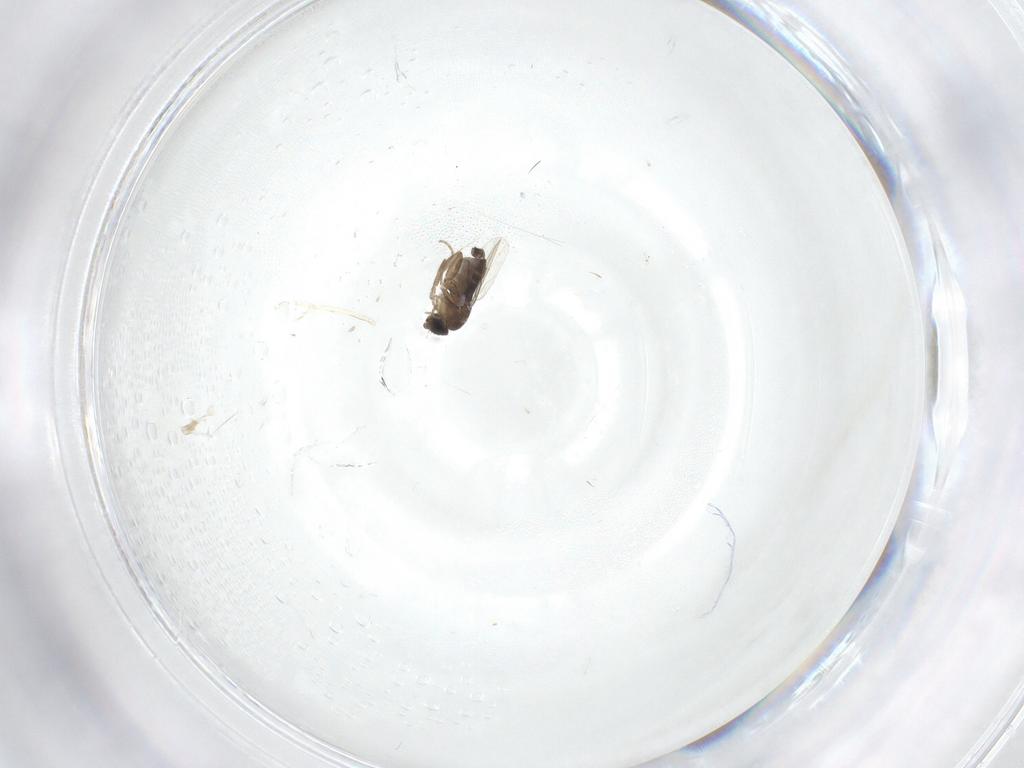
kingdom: Animalia
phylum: Arthropoda
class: Insecta
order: Diptera
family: Phoridae
